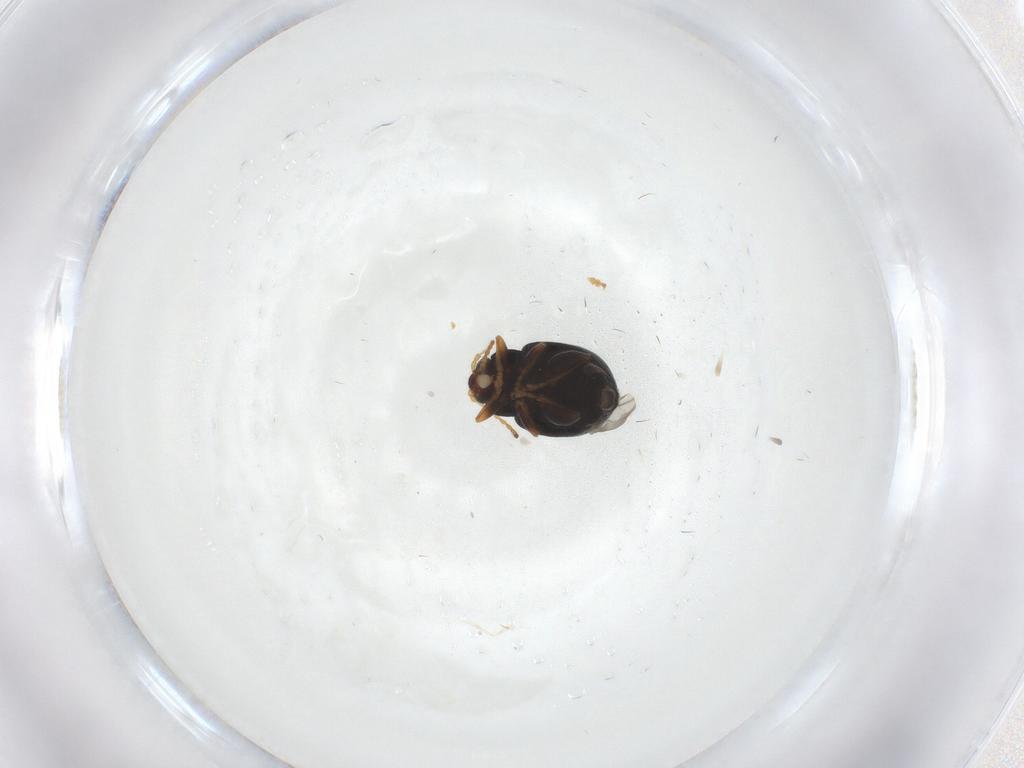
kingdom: Animalia
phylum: Arthropoda
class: Insecta
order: Coleoptera
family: Chrysomelidae
